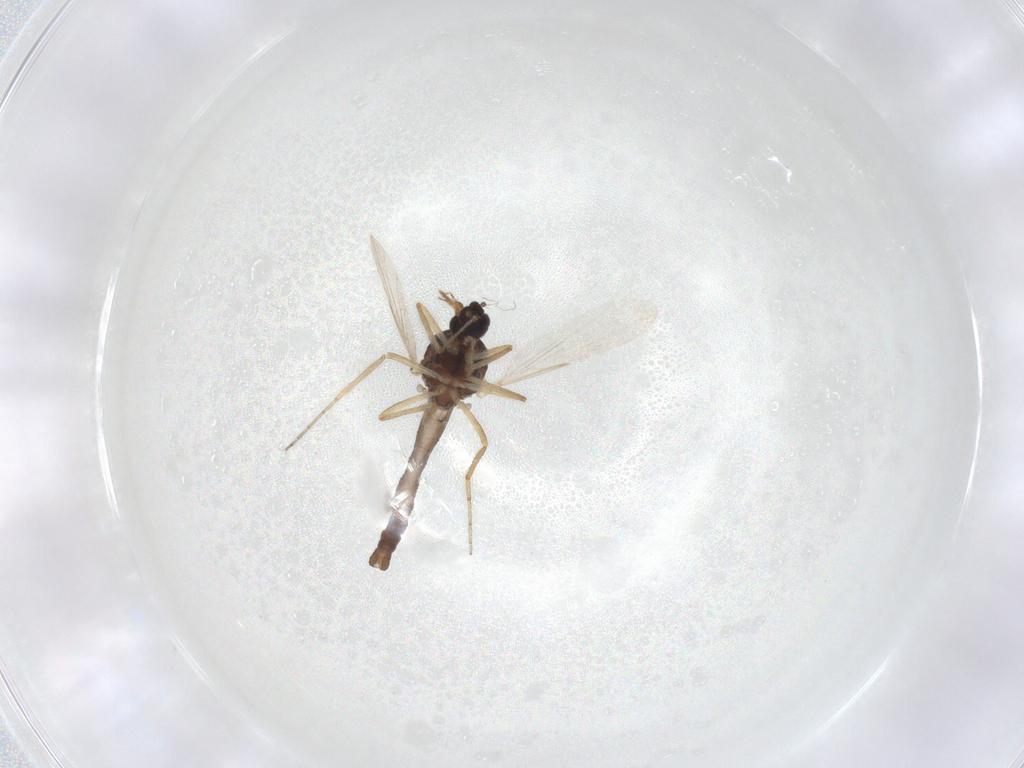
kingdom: Animalia
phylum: Arthropoda
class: Insecta
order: Diptera
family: Ceratopogonidae
